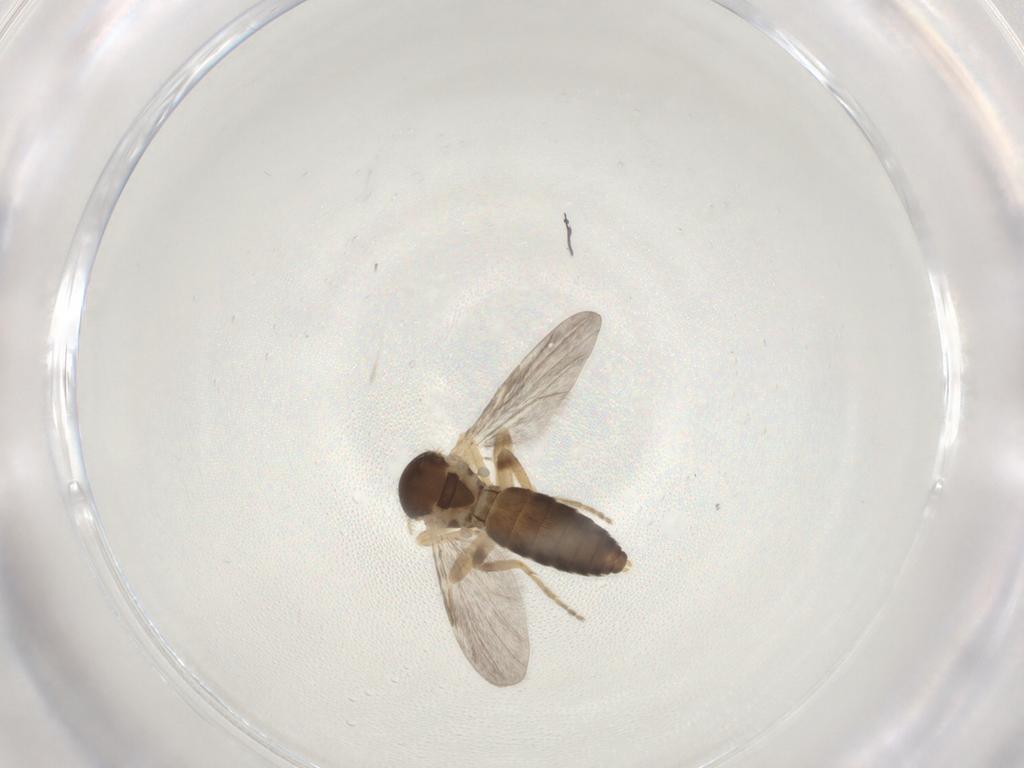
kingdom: Animalia
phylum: Arthropoda
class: Insecta
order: Diptera
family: Ceratopogonidae
